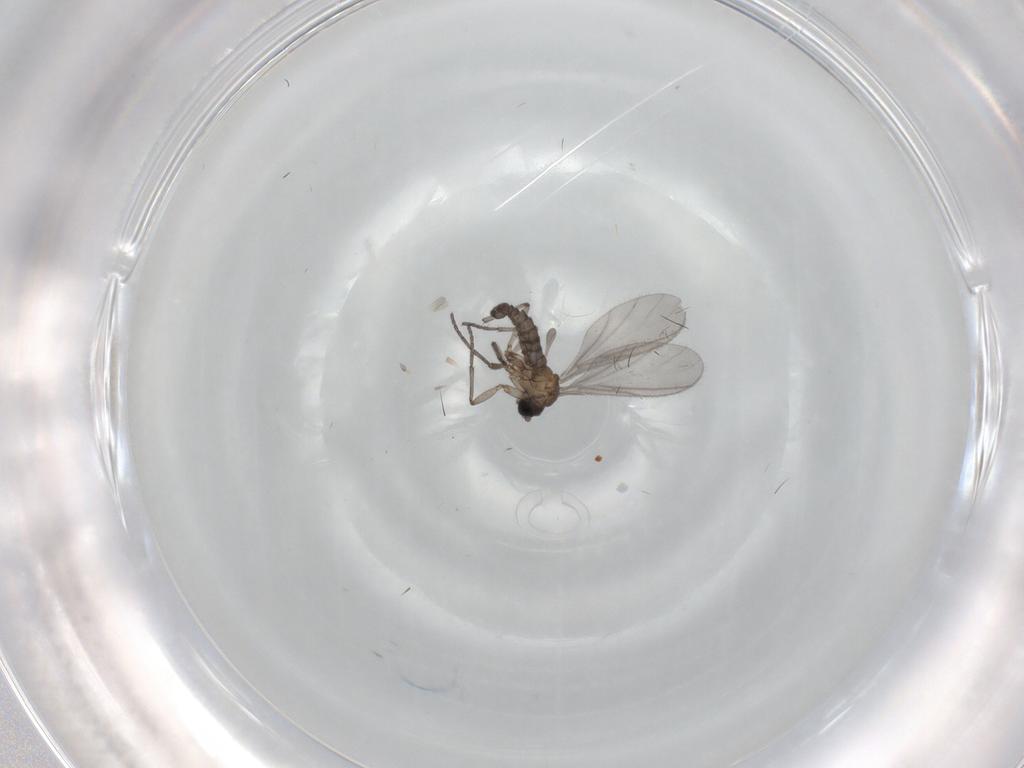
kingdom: Animalia
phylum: Arthropoda
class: Insecta
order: Diptera
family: Sciaridae
